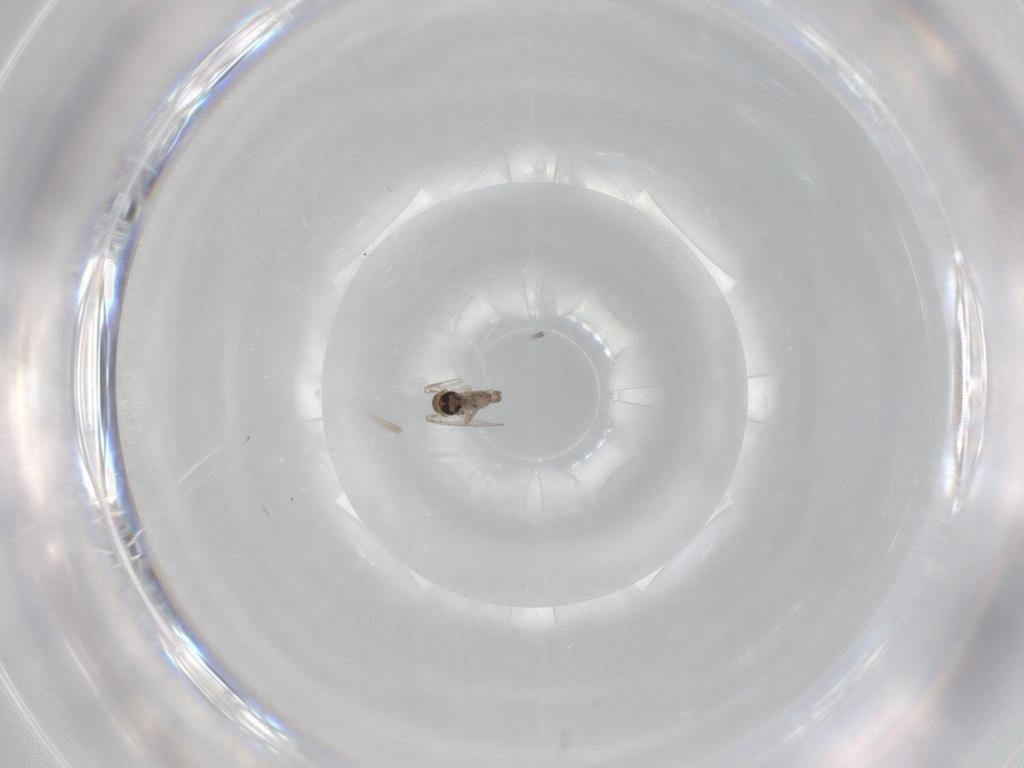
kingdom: Animalia
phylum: Arthropoda
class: Insecta
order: Diptera
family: Psychodidae
